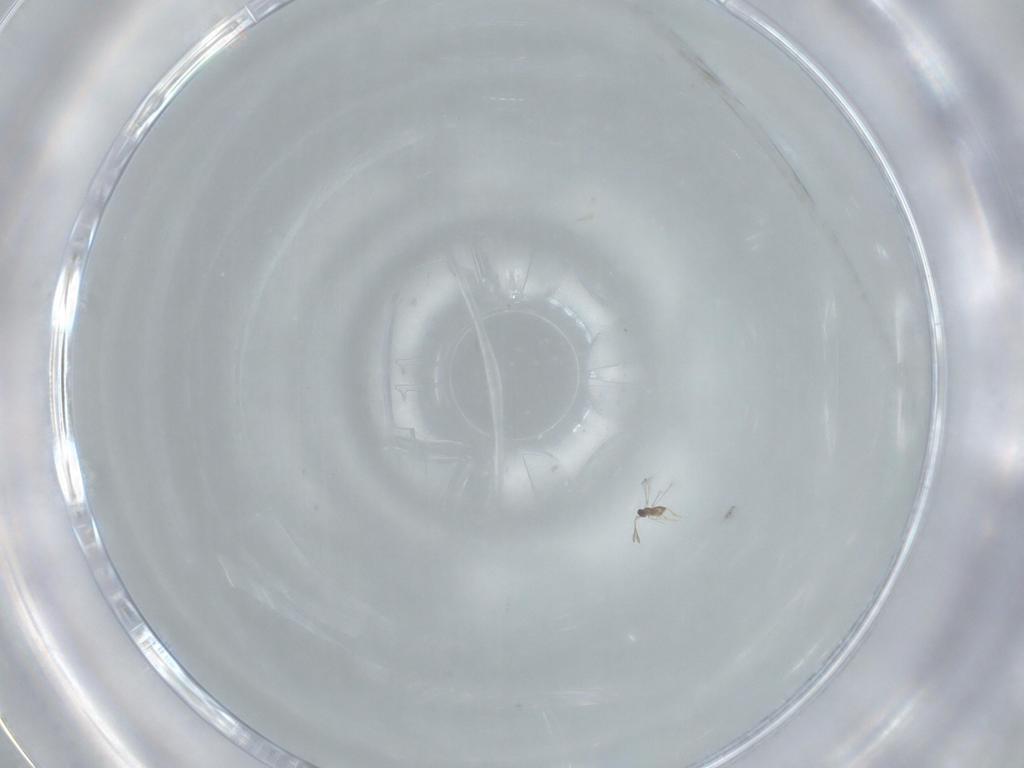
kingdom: Animalia
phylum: Arthropoda
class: Insecta
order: Hymenoptera
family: Mymaridae
